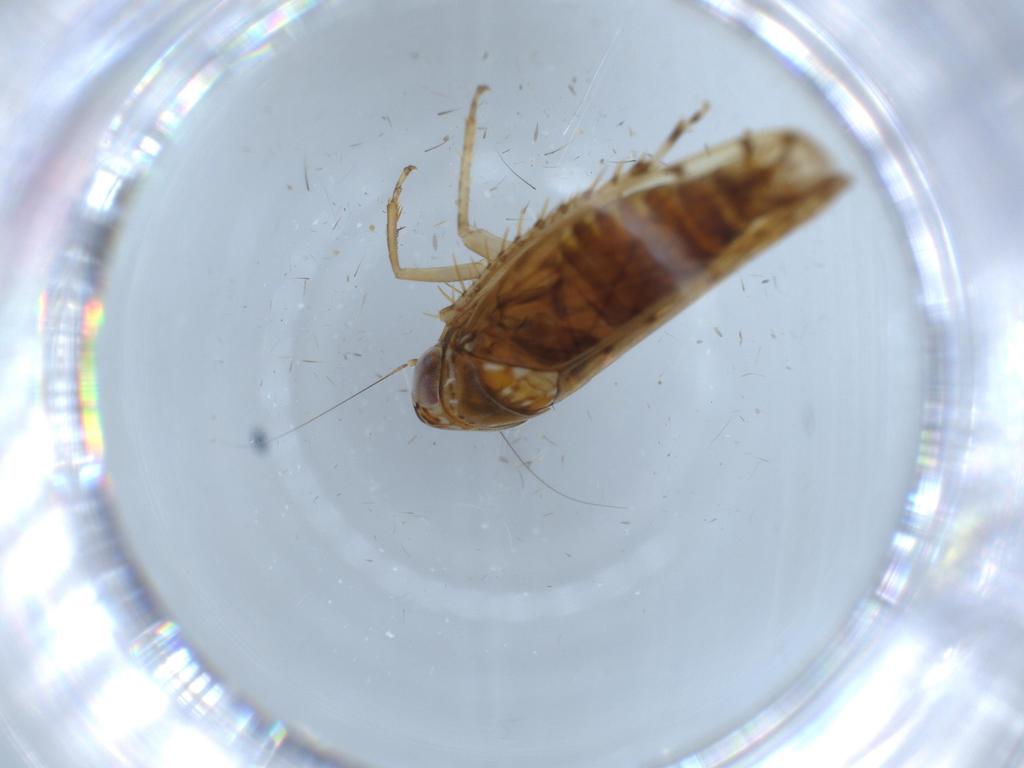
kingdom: Animalia
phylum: Arthropoda
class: Insecta
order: Hemiptera
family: Cicadellidae
